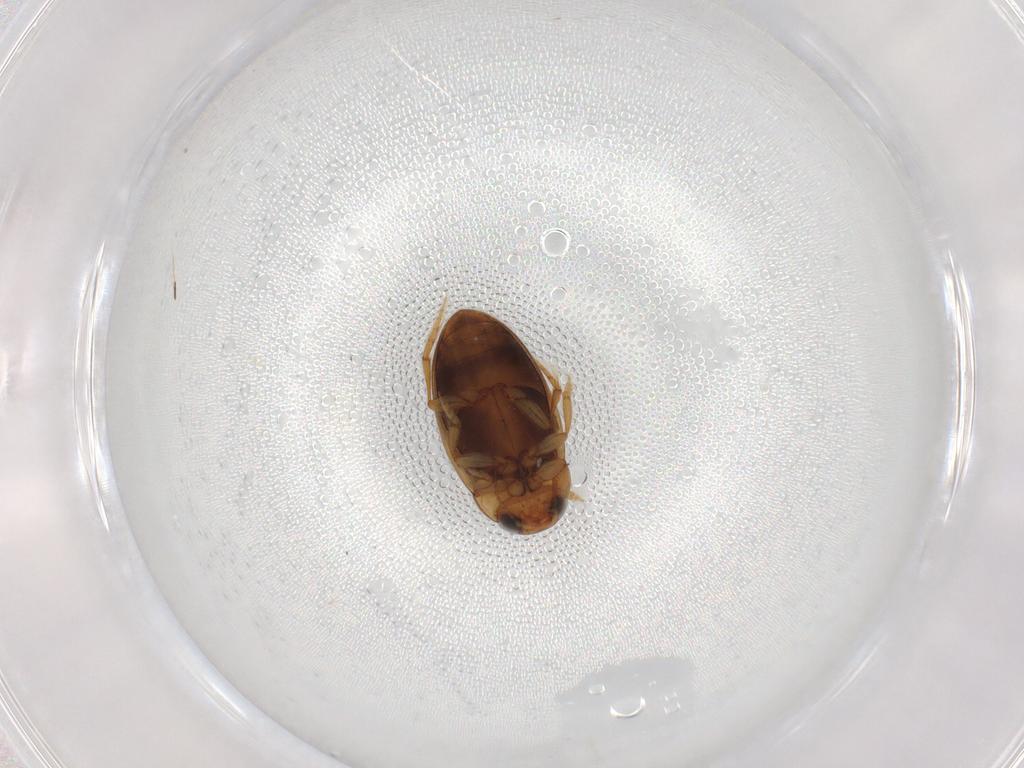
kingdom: Animalia
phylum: Arthropoda
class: Insecta
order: Coleoptera
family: Dytiscidae
